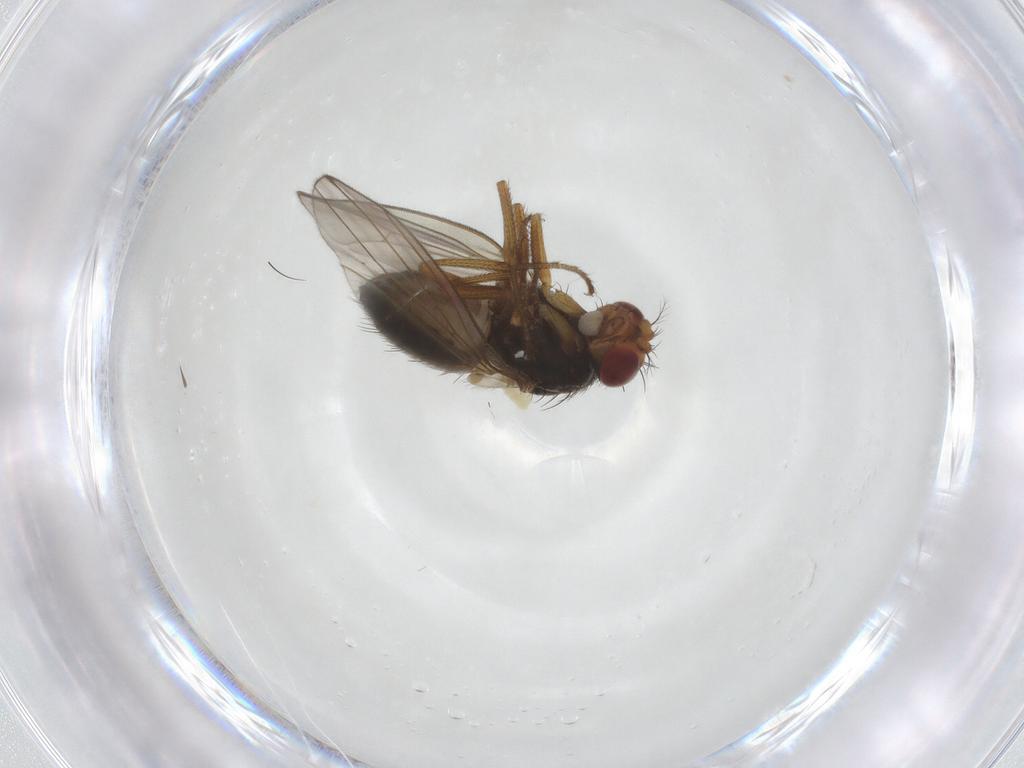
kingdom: Animalia
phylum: Arthropoda
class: Insecta
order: Diptera
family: Drosophilidae
